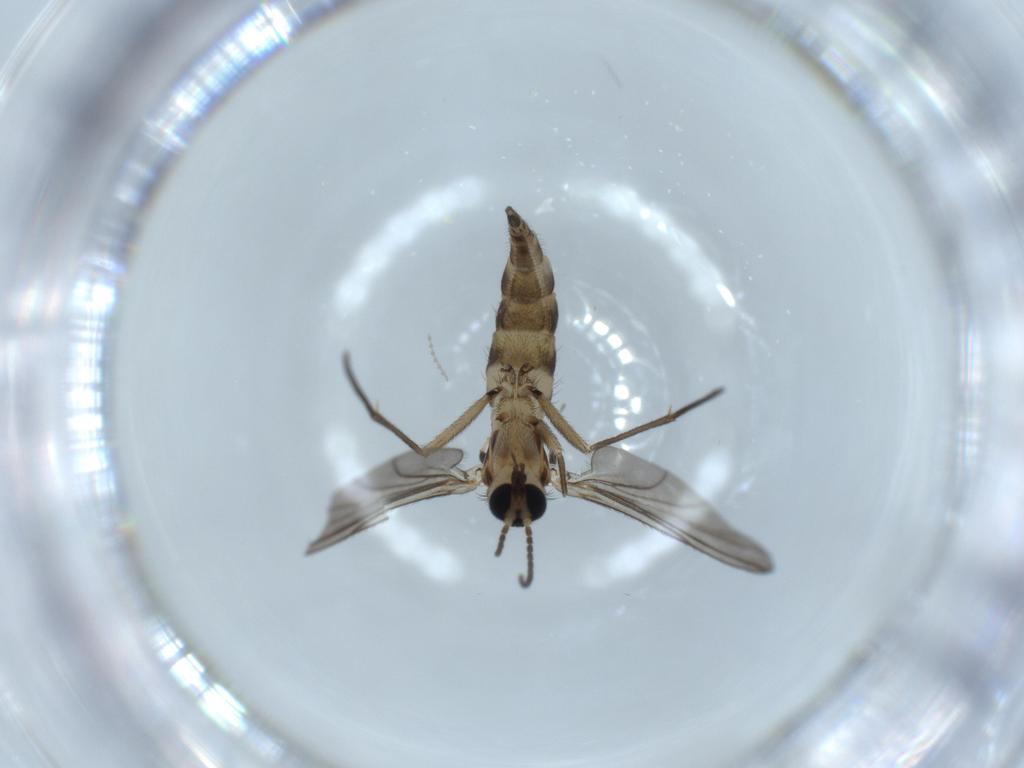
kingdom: Animalia
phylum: Arthropoda
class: Insecta
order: Diptera
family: Sciaridae
